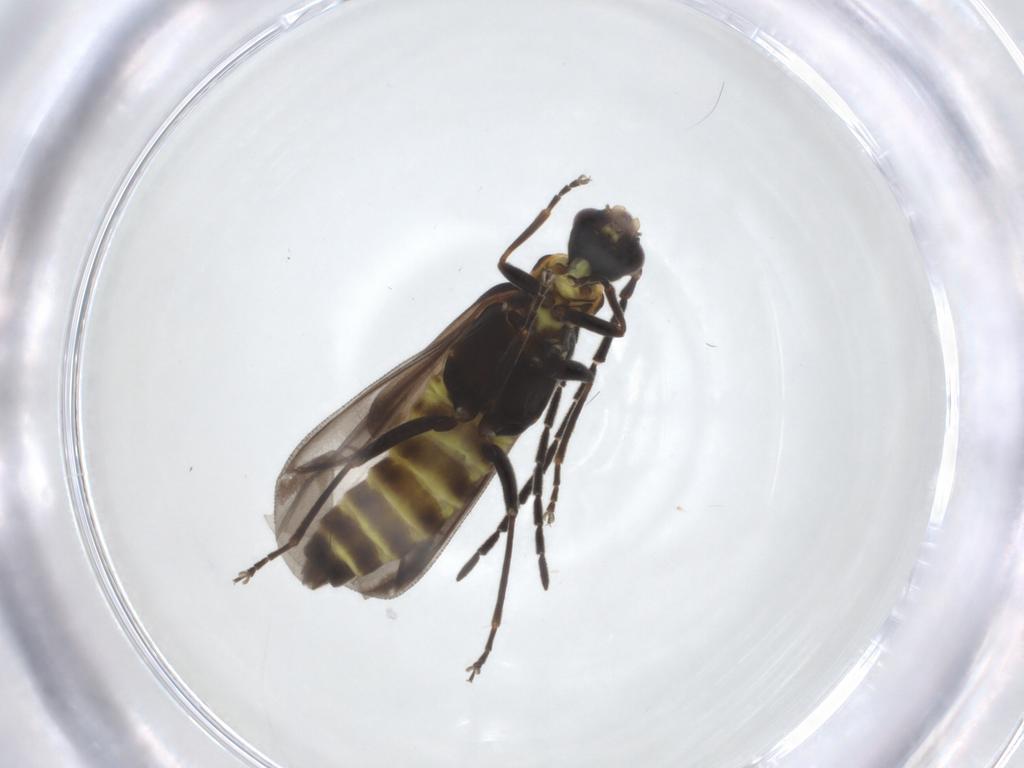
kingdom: Animalia
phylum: Arthropoda
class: Insecta
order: Coleoptera
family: Cantharidae
